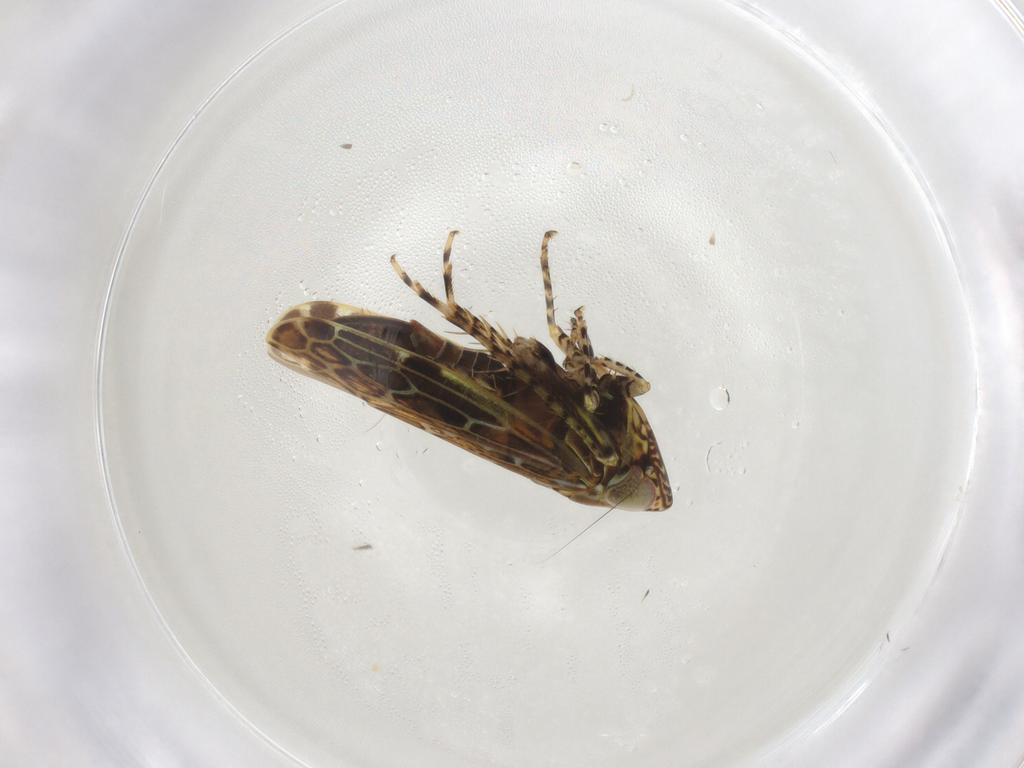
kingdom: Animalia
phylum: Arthropoda
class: Insecta
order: Hemiptera
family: Cicadellidae
